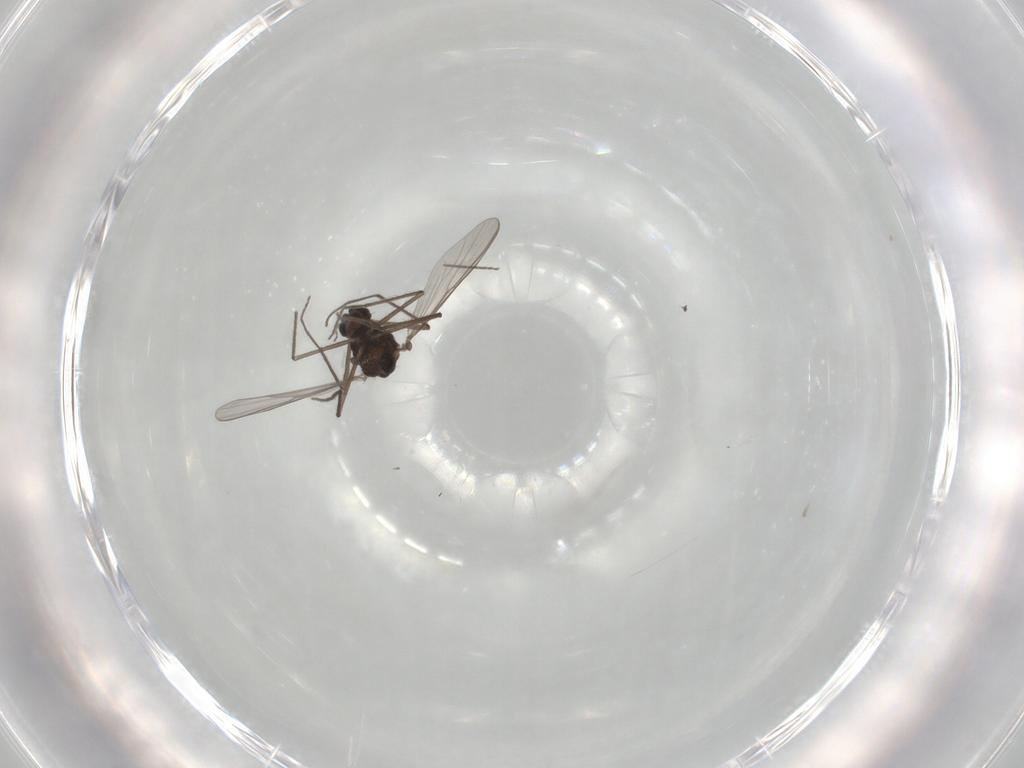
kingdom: Animalia
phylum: Arthropoda
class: Insecta
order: Diptera
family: Chironomidae
